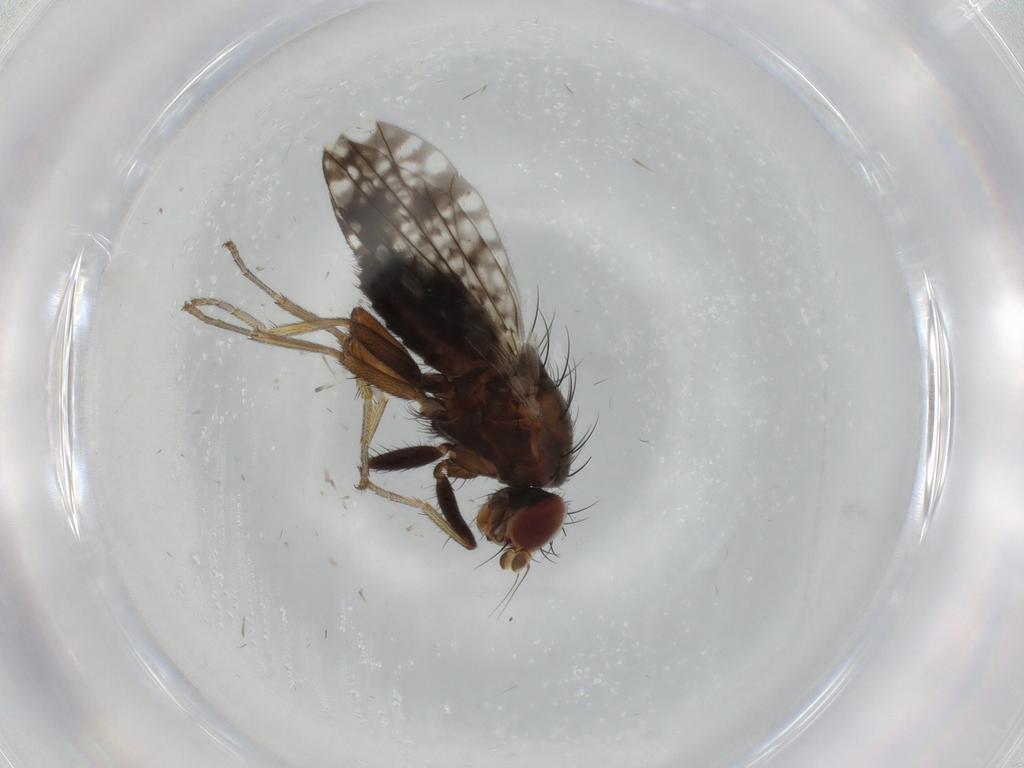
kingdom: Animalia
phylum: Arthropoda
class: Insecta
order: Diptera
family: Tephritidae
